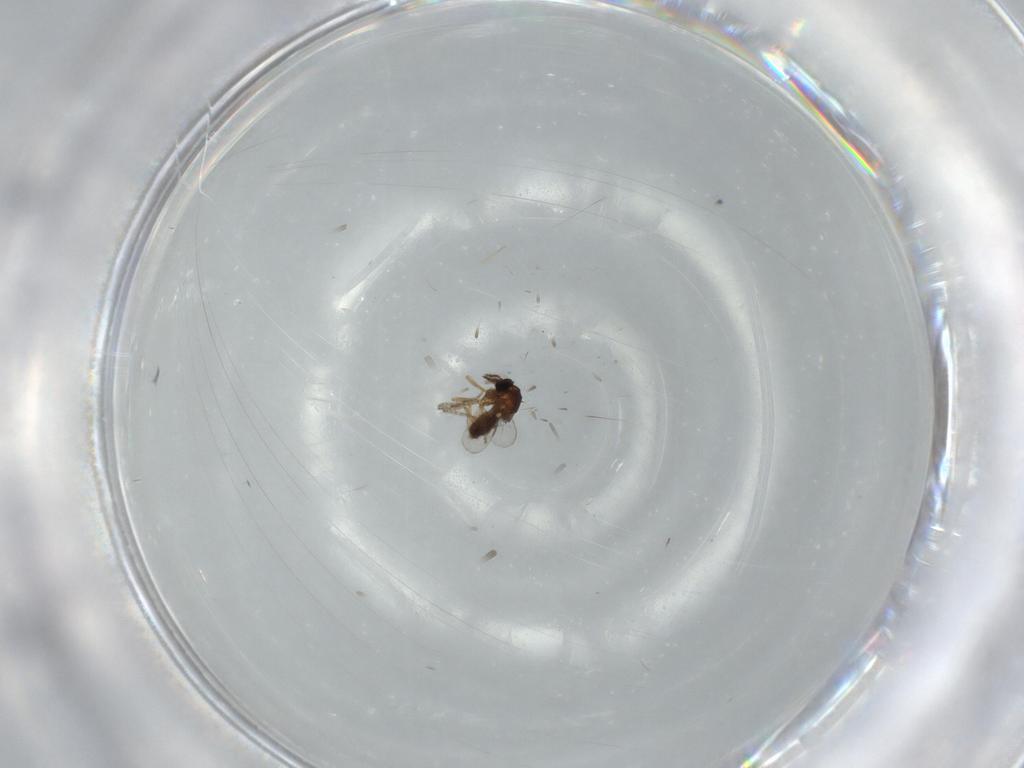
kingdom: Animalia
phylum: Arthropoda
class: Insecta
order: Diptera
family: Ceratopogonidae
